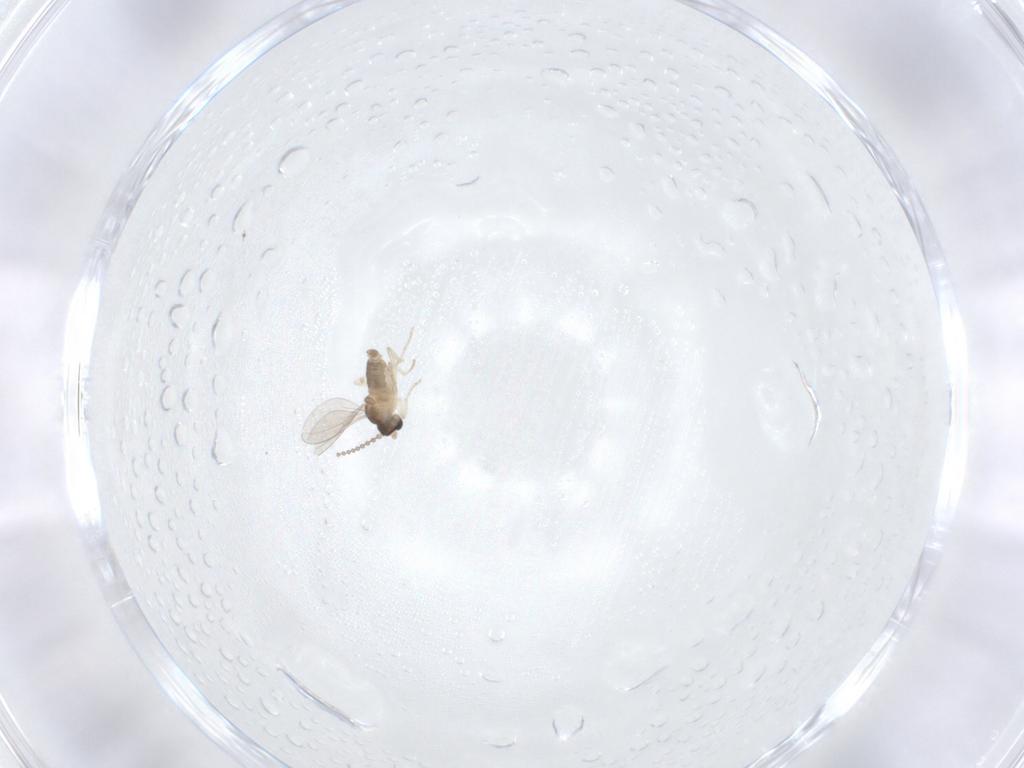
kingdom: Animalia
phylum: Arthropoda
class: Insecta
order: Diptera
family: Cecidomyiidae
